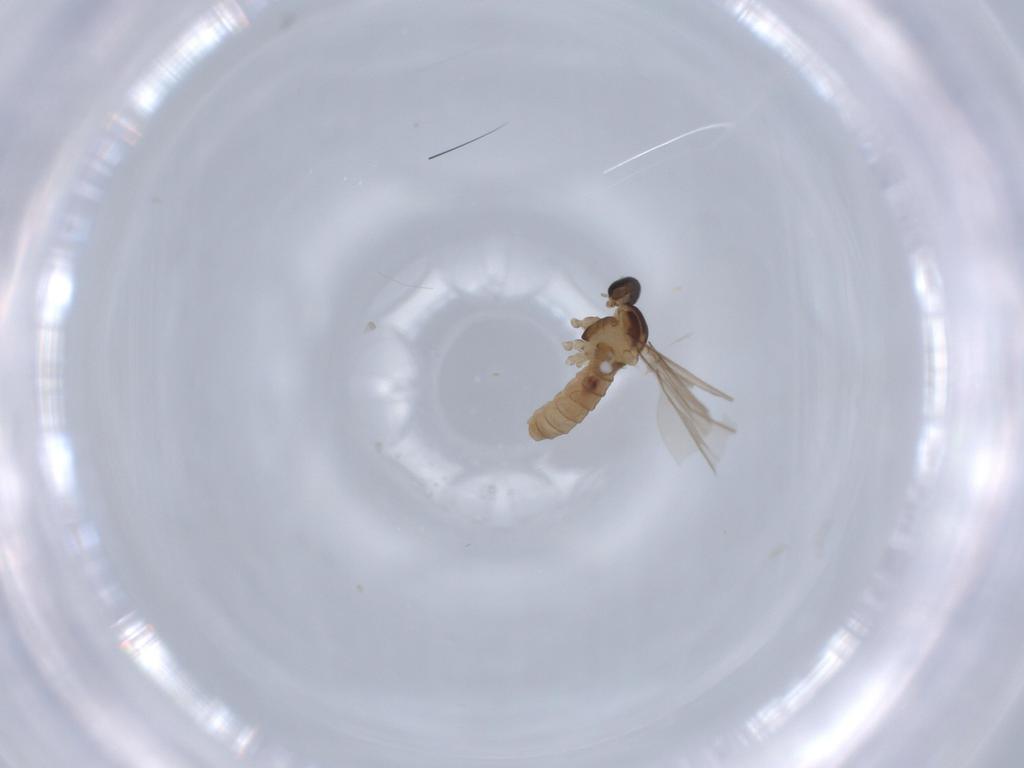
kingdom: Animalia
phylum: Arthropoda
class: Insecta
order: Diptera
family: Cecidomyiidae
